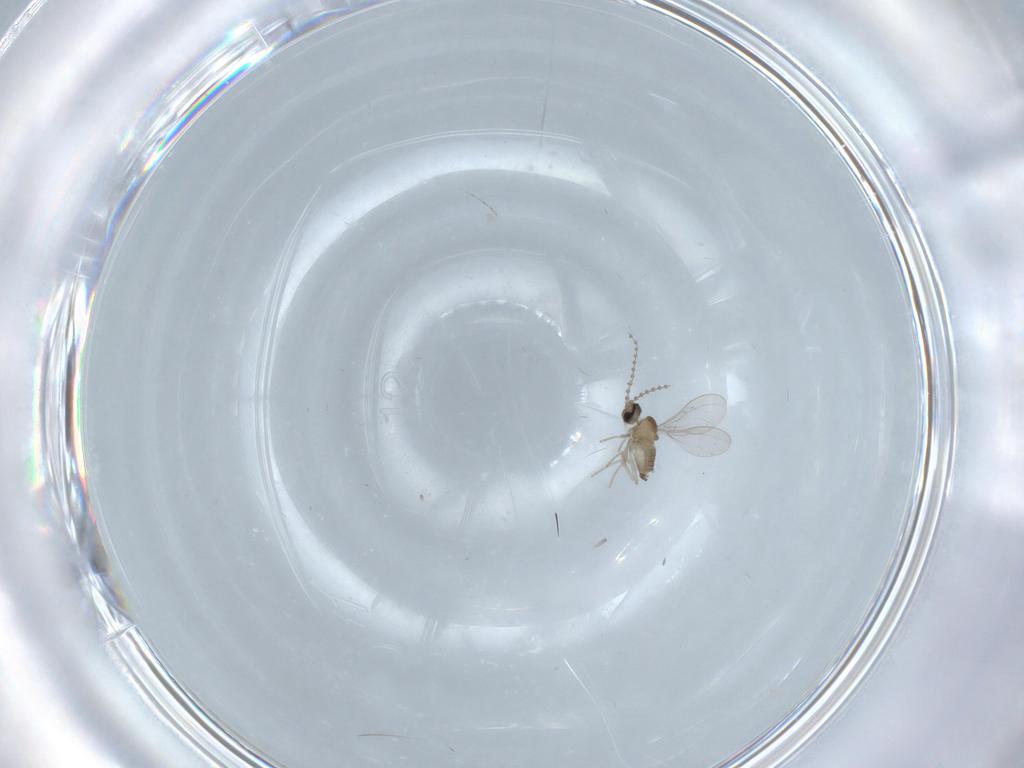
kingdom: Animalia
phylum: Arthropoda
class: Insecta
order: Diptera
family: Cecidomyiidae
